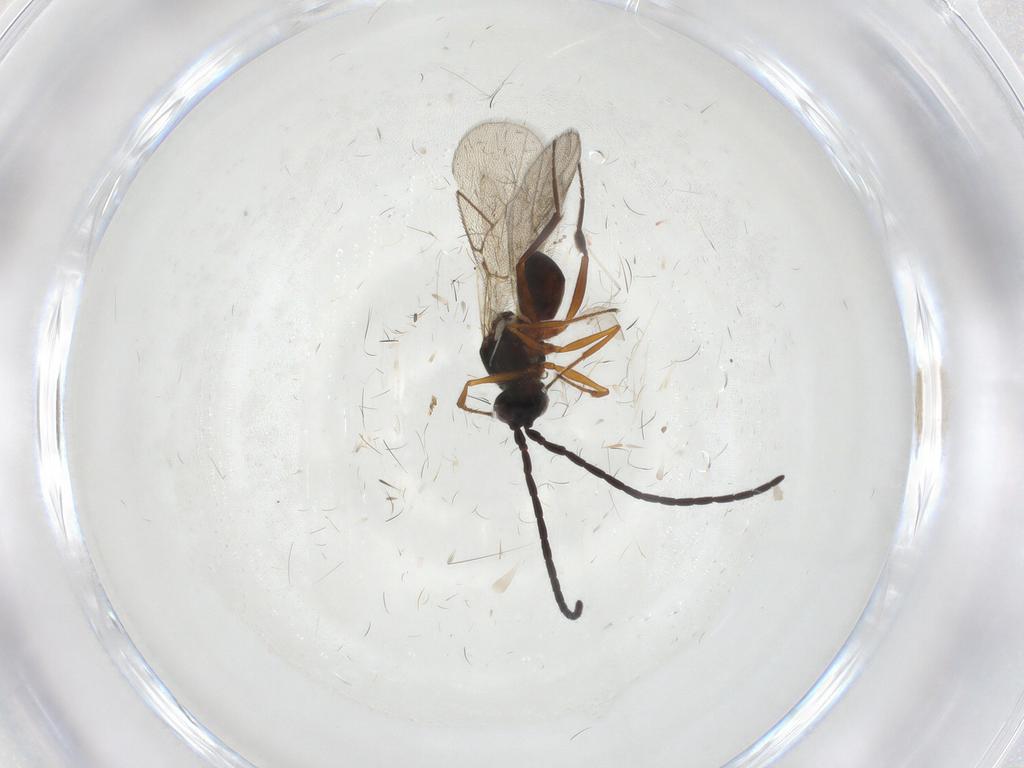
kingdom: Animalia
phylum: Arthropoda
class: Insecta
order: Hymenoptera
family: Figitidae
